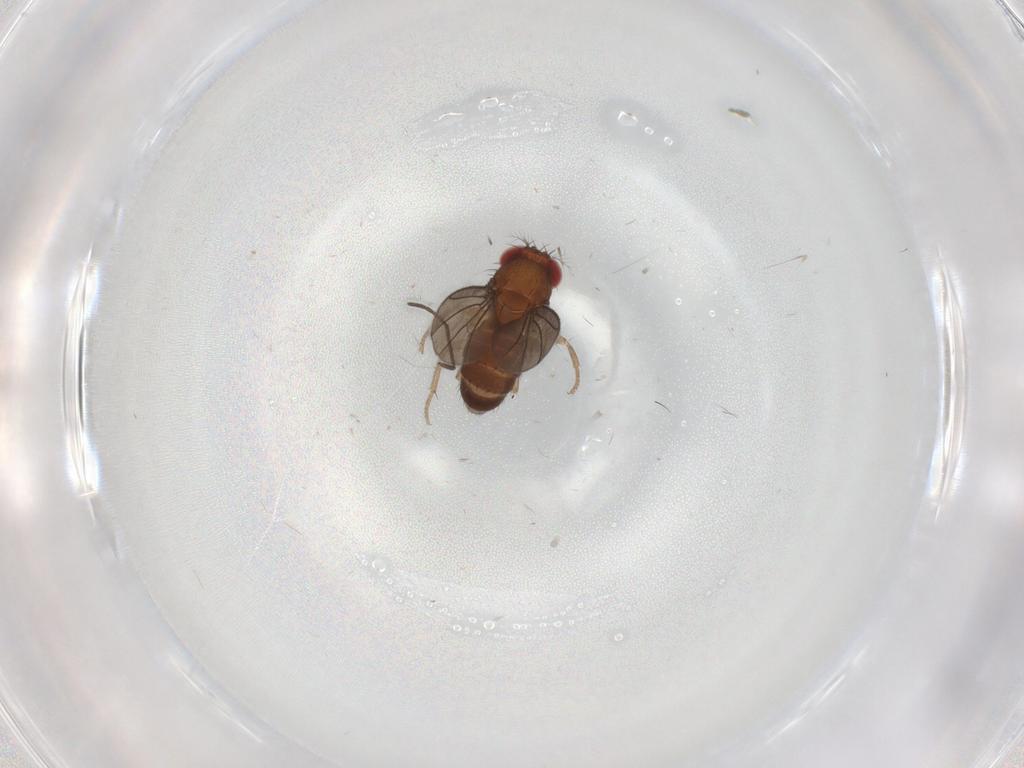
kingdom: Animalia
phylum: Arthropoda
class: Insecta
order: Diptera
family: Drosophilidae
